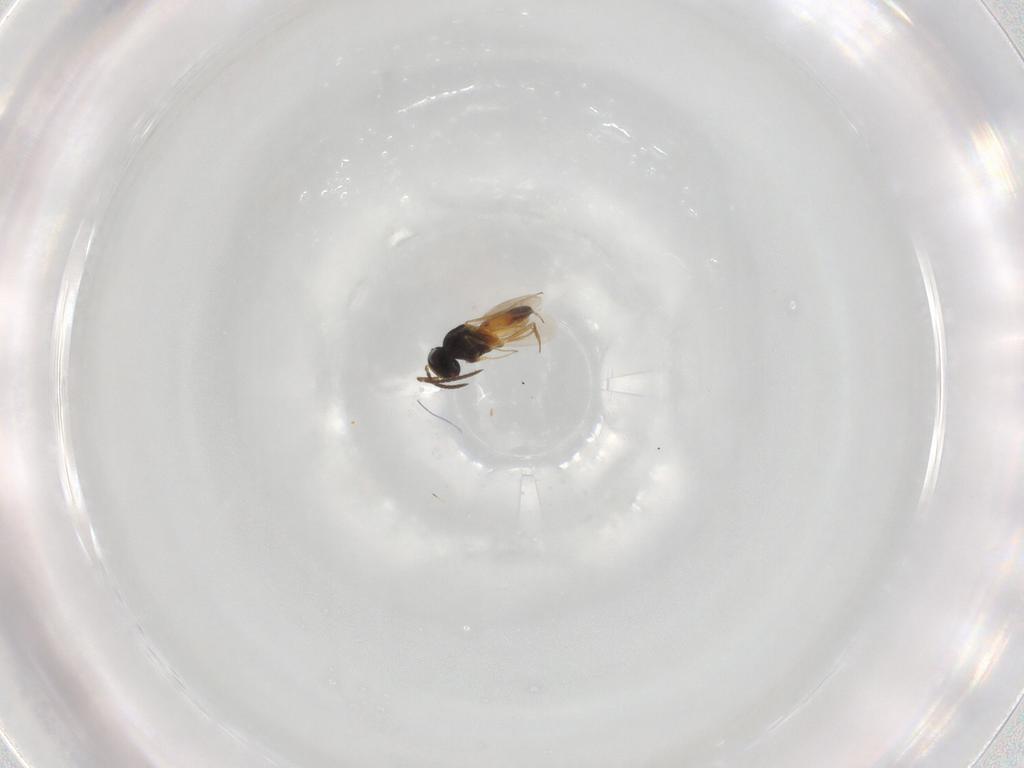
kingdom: Animalia
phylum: Arthropoda
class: Insecta
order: Hymenoptera
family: Scelionidae
